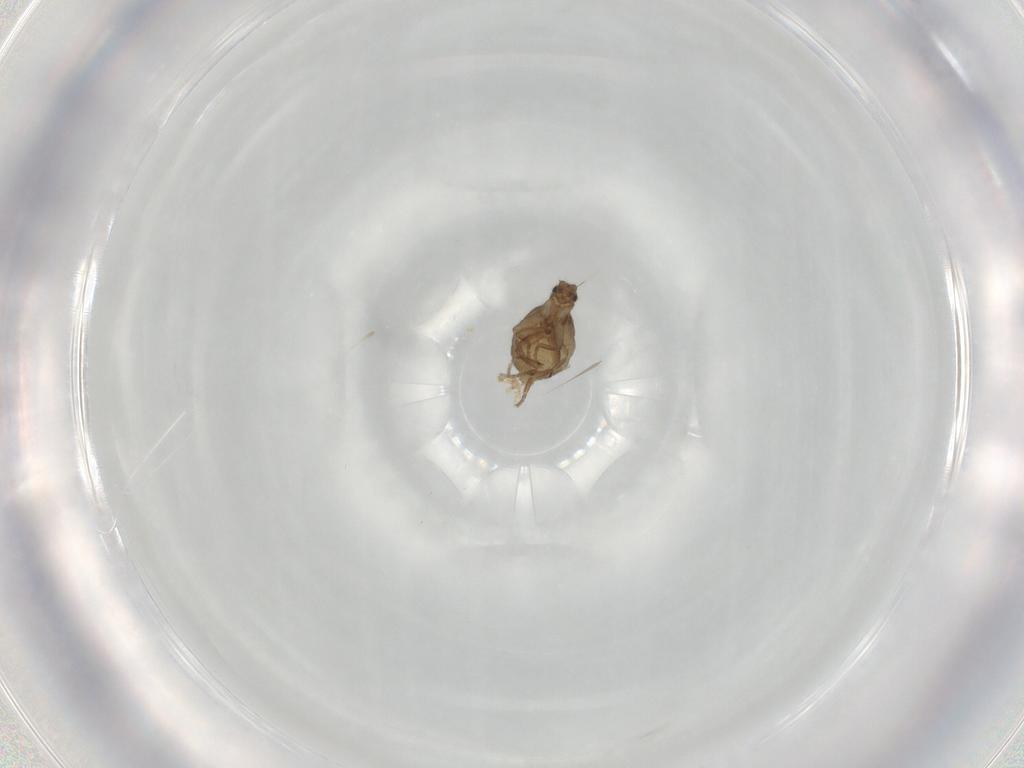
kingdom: Animalia
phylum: Arthropoda
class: Insecta
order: Diptera
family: Phoridae
